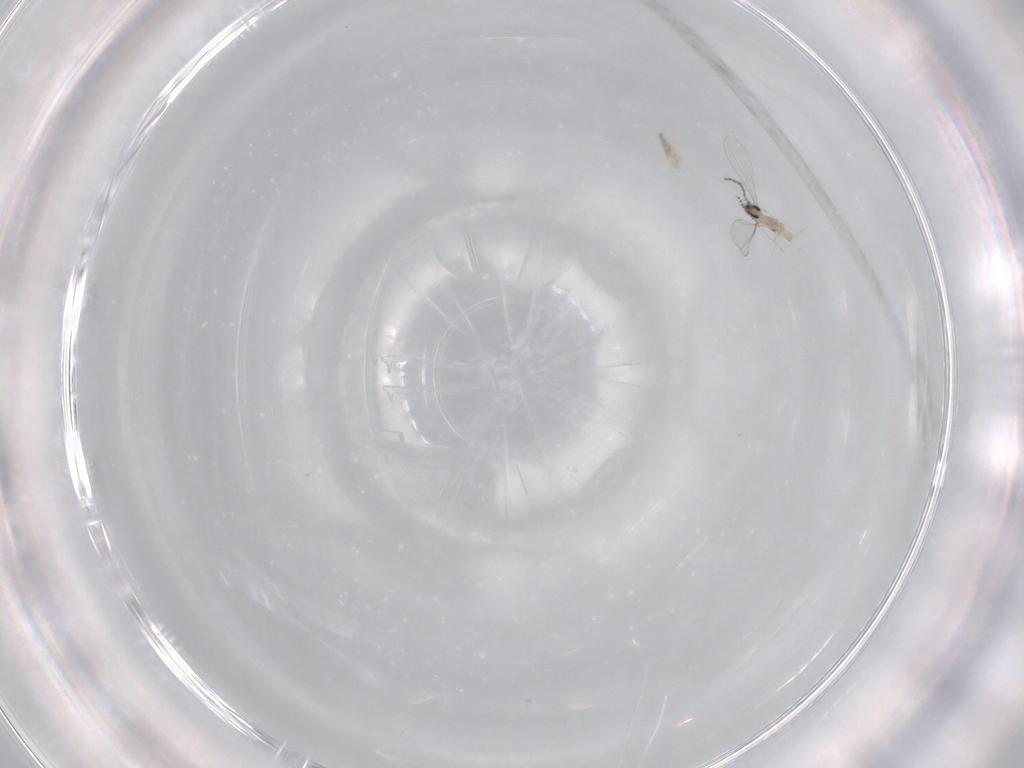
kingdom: Animalia
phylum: Arthropoda
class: Insecta
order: Diptera
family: Cecidomyiidae
